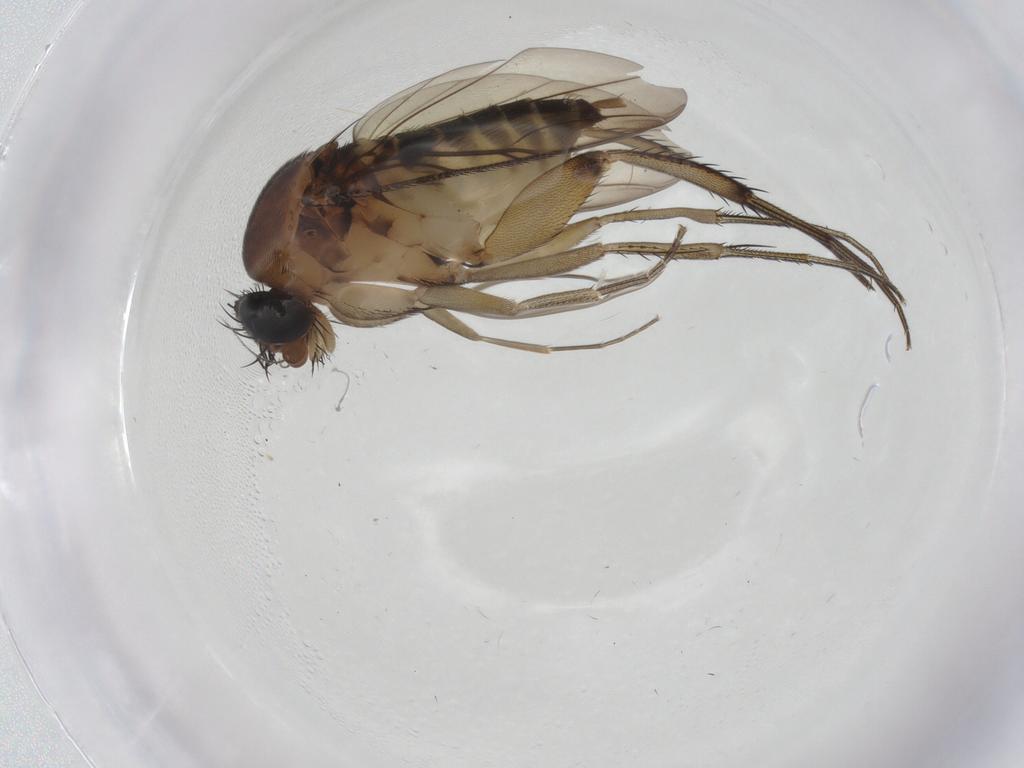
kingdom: Animalia
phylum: Arthropoda
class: Insecta
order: Diptera
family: Phoridae
